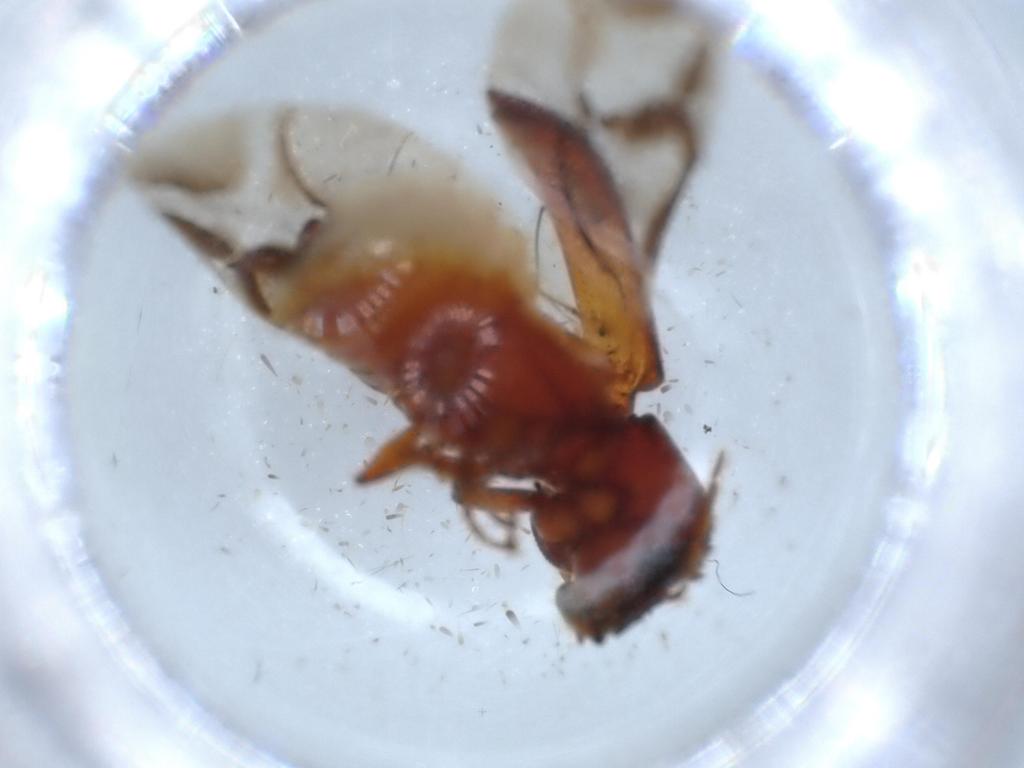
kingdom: Animalia
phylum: Arthropoda
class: Insecta
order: Coleoptera
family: Bostrichidae
